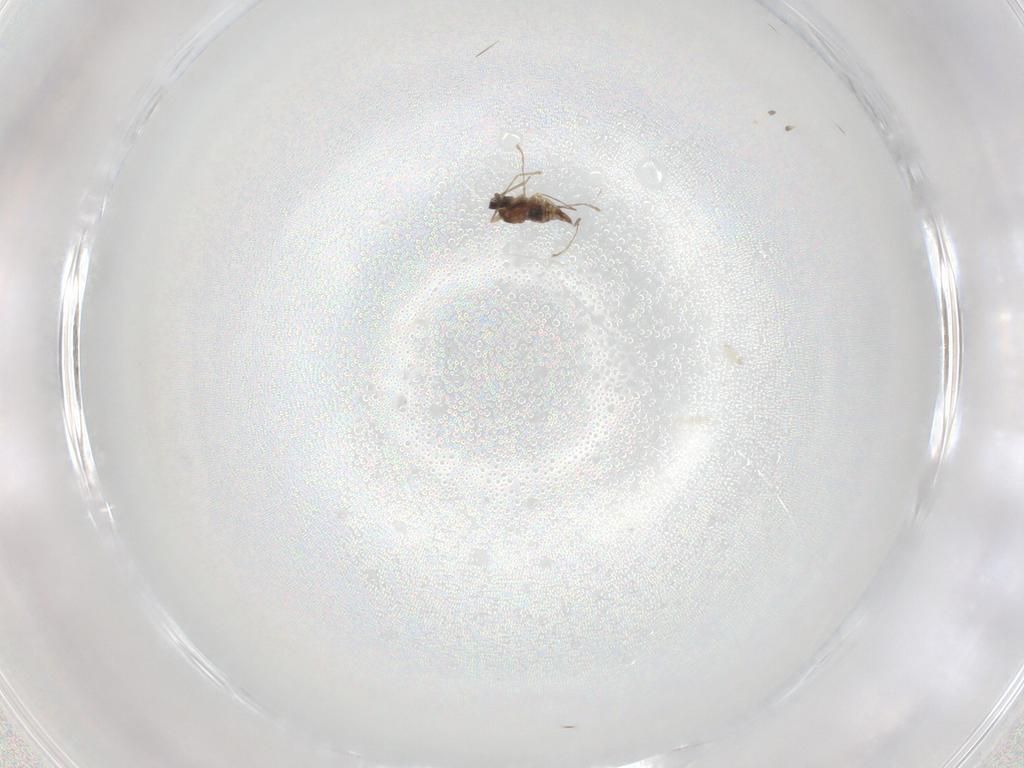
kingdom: Animalia
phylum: Arthropoda
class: Insecta
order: Diptera
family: Cecidomyiidae
